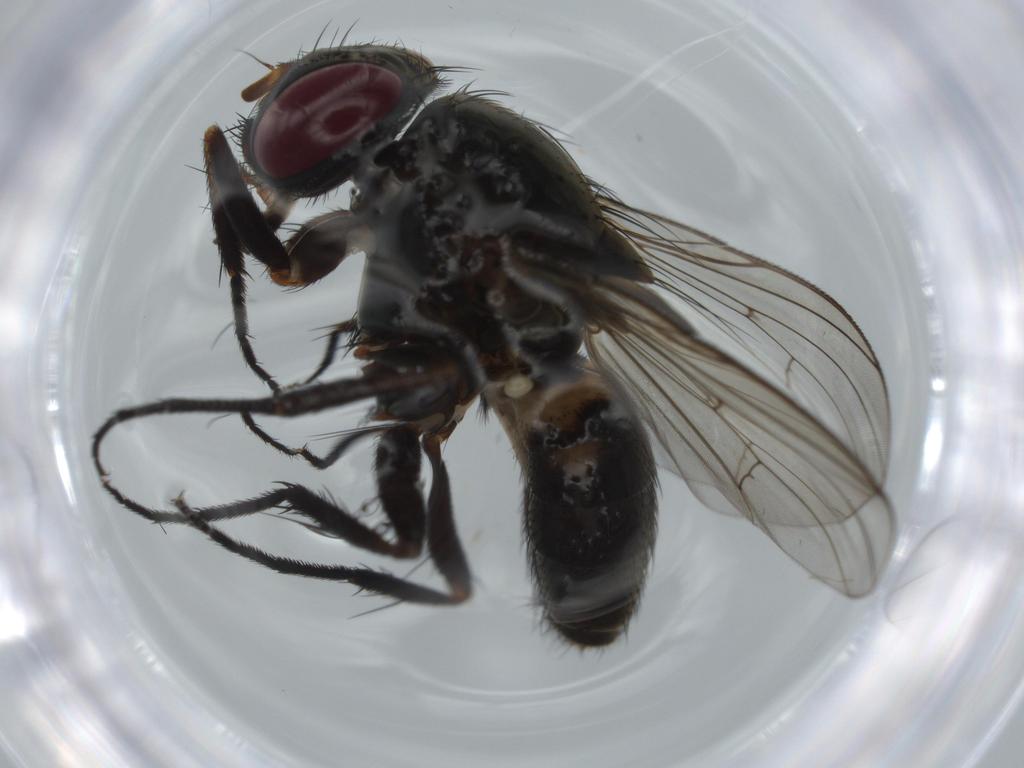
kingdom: Animalia
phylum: Arthropoda
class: Insecta
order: Diptera
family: Fannia
